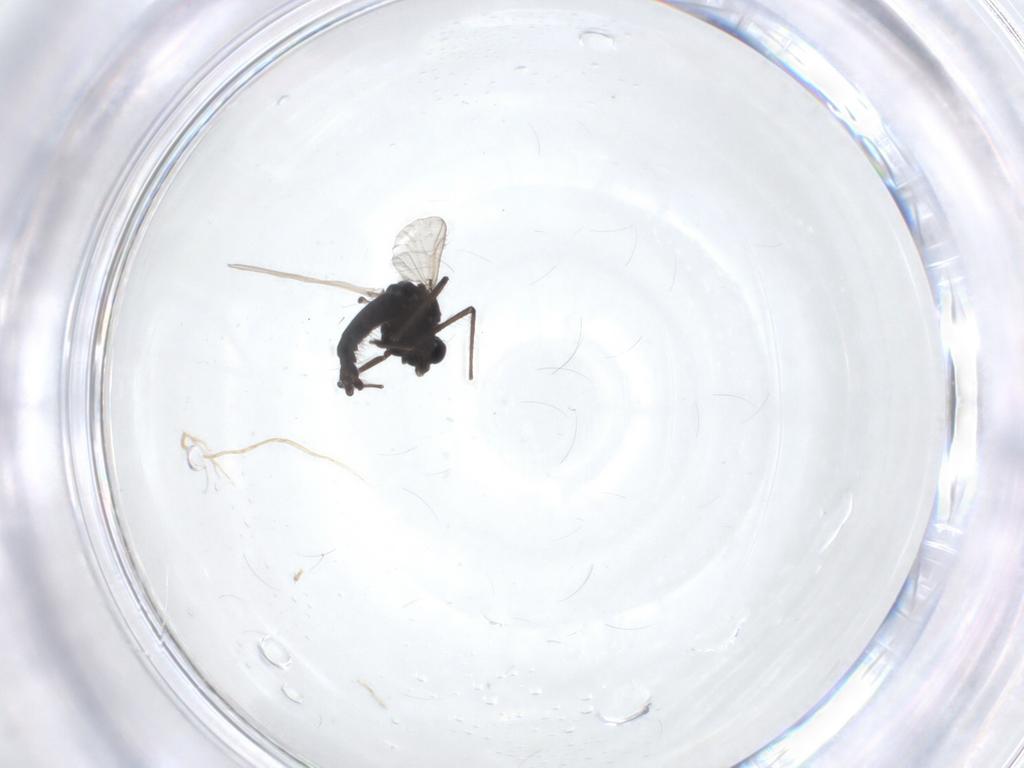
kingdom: Animalia
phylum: Arthropoda
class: Insecta
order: Diptera
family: Chironomidae
